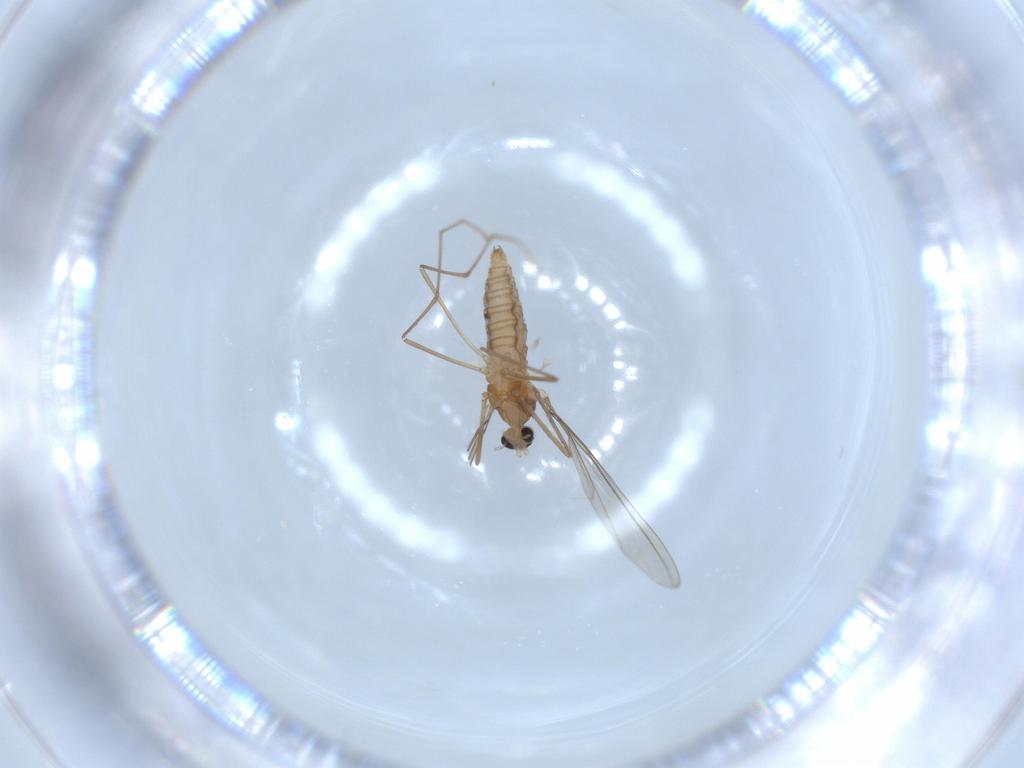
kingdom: Animalia
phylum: Arthropoda
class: Insecta
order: Diptera
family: Cecidomyiidae
